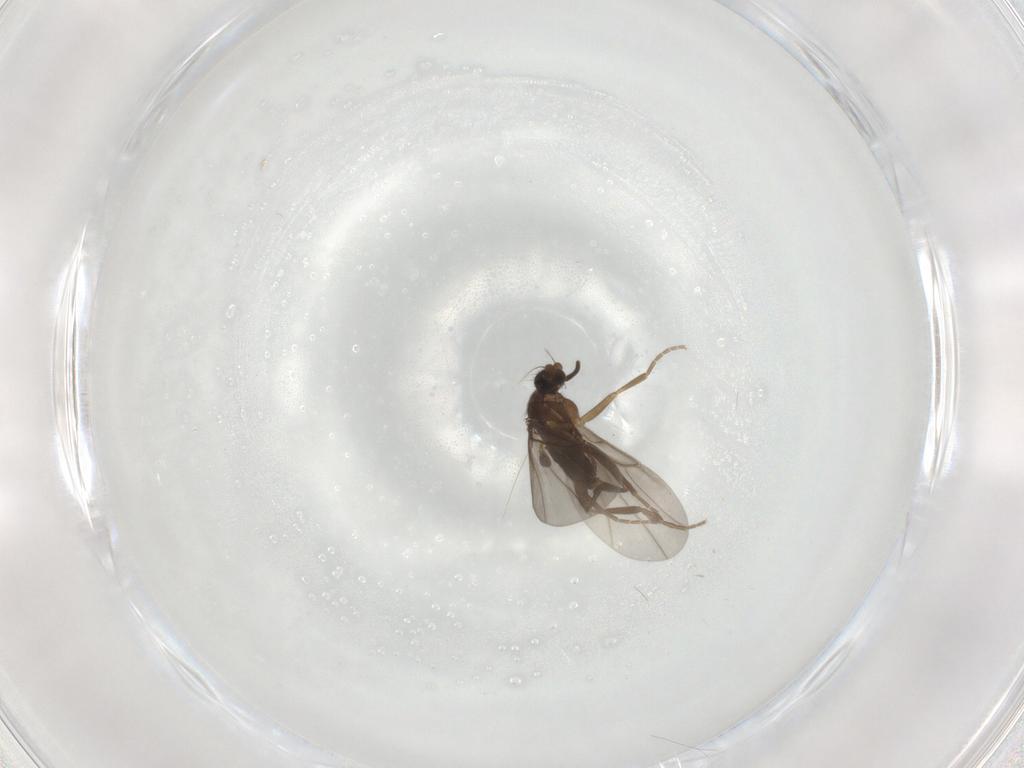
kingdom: Animalia
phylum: Arthropoda
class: Insecta
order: Diptera
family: Phoridae
